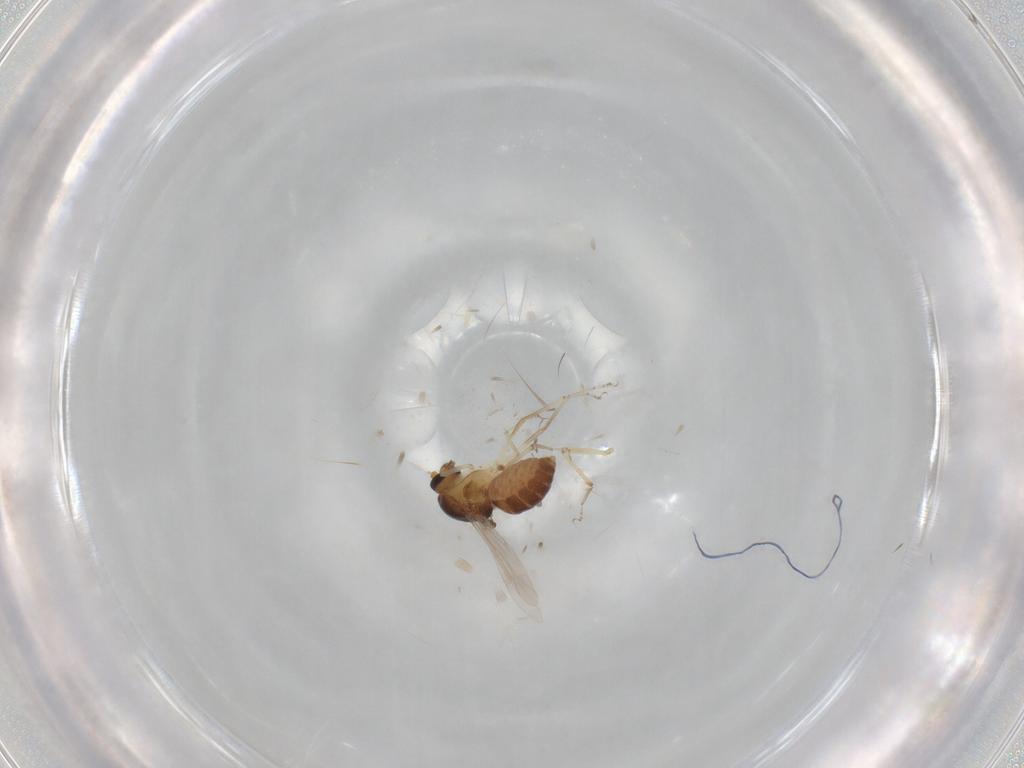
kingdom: Animalia
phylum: Arthropoda
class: Insecta
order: Diptera
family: Ceratopogonidae
